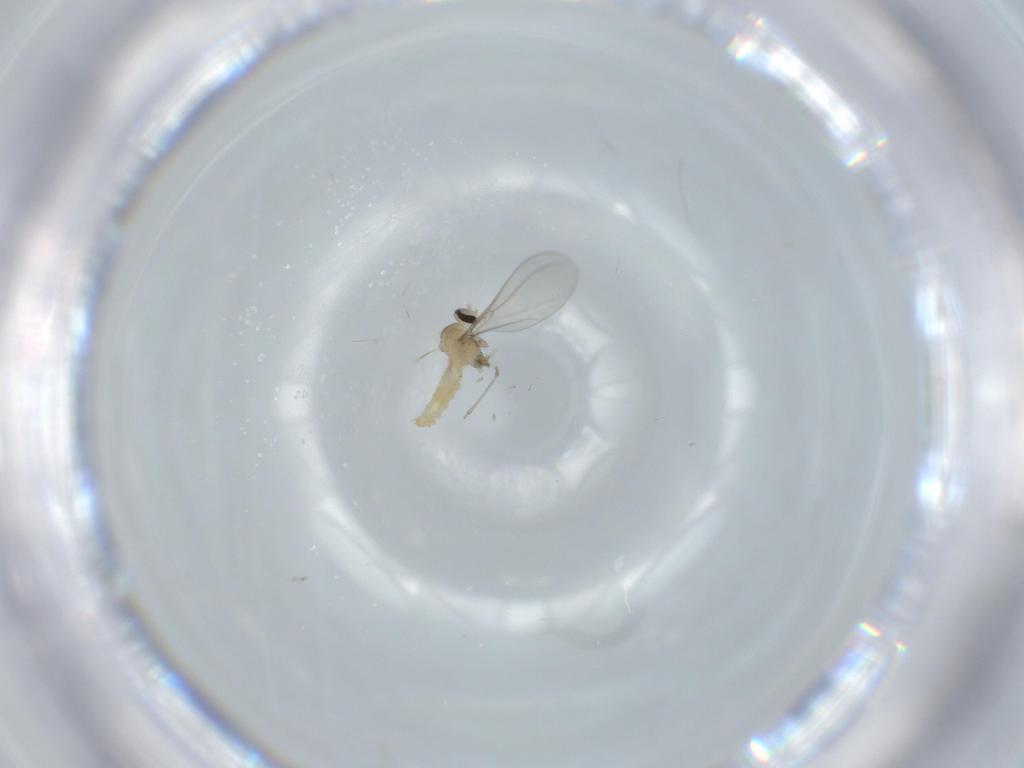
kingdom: Animalia
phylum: Arthropoda
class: Insecta
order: Diptera
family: Cecidomyiidae
